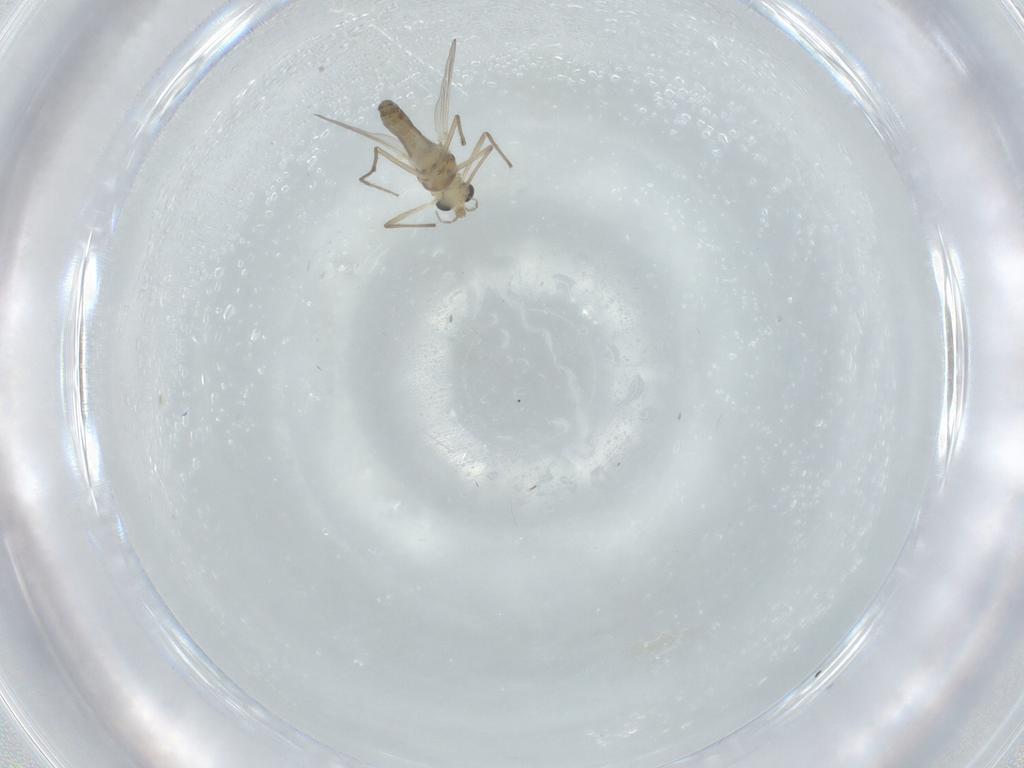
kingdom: Animalia
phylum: Arthropoda
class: Insecta
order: Diptera
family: Chironomidae
